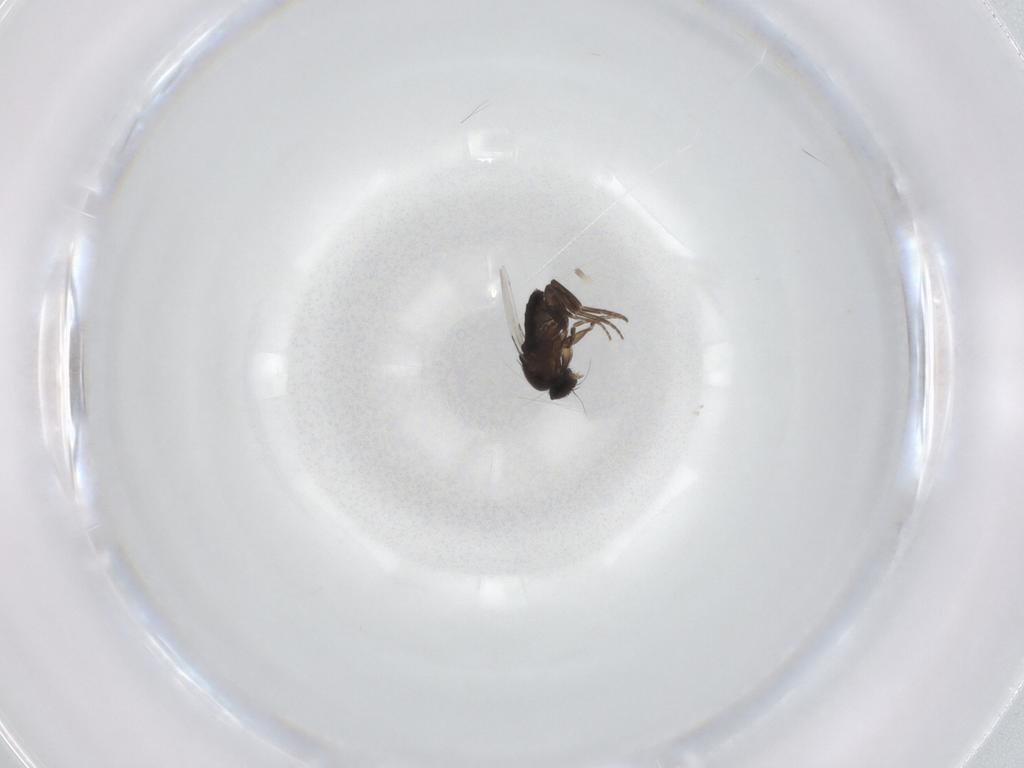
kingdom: Animalia
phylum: Arthropoda
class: Insecta
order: Diptera
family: Phoridae
